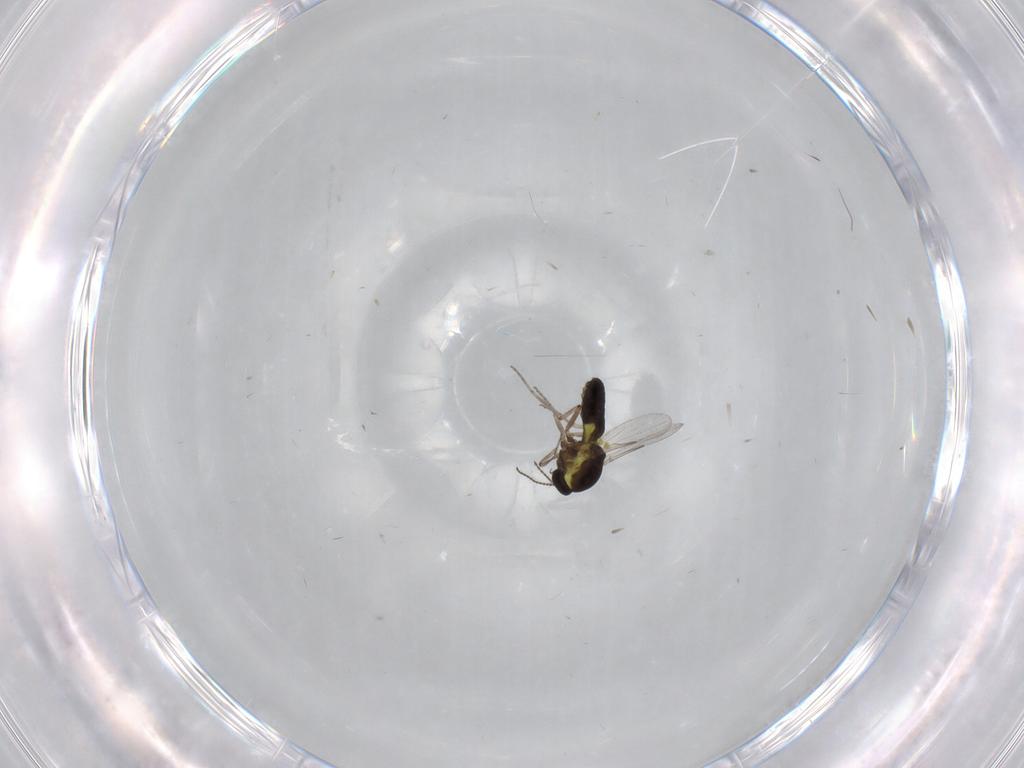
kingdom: Animalia
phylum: Arthropoda
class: Insecta
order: Diptera
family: Ceratopogonidae
